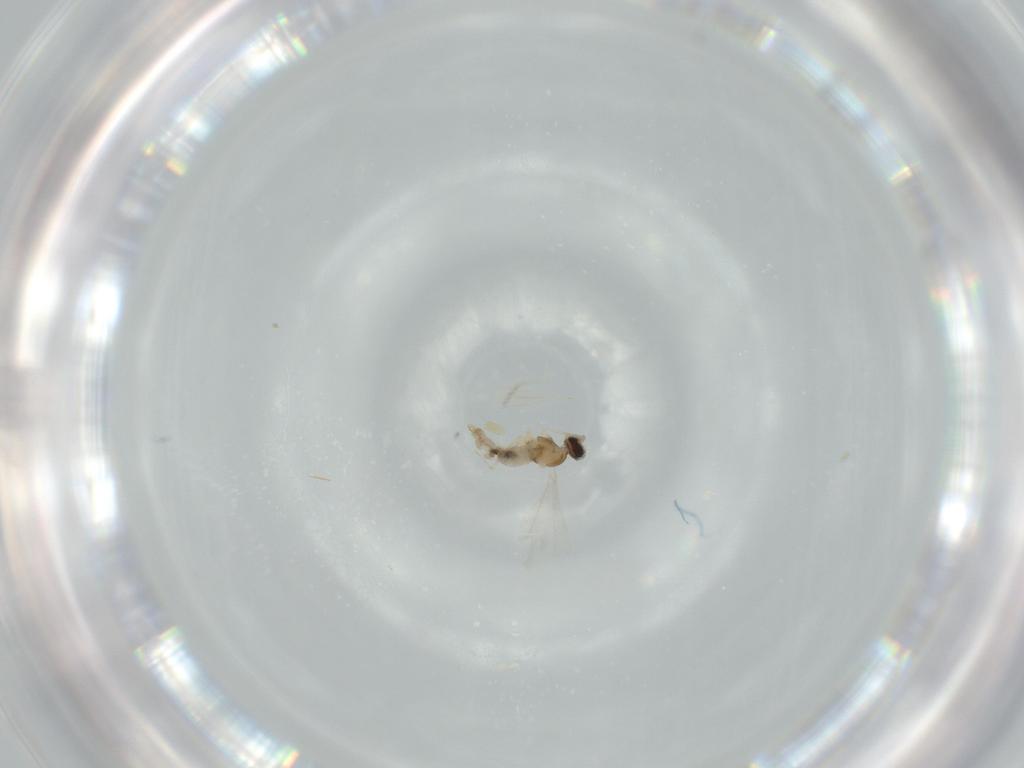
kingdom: Animalia
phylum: Arthropoda
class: Insecta
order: Diptera
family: Cecidomyiidae
